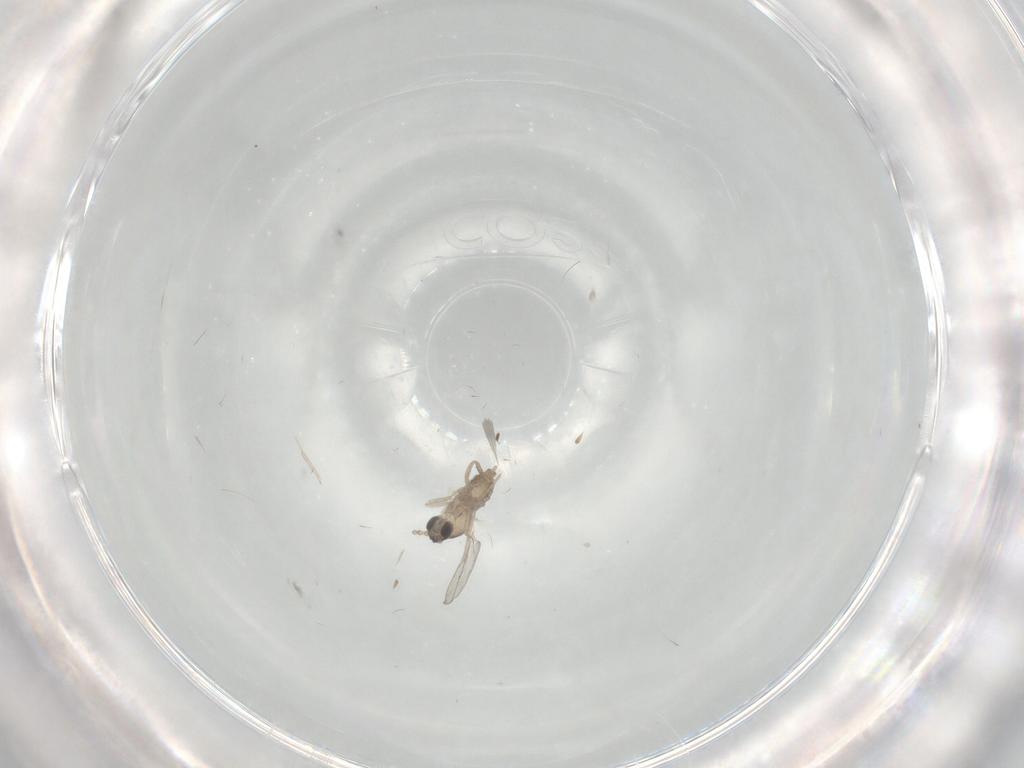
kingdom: Animalia
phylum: Arthropoda
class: Insecta
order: Diptera
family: Cecidomyiidae
